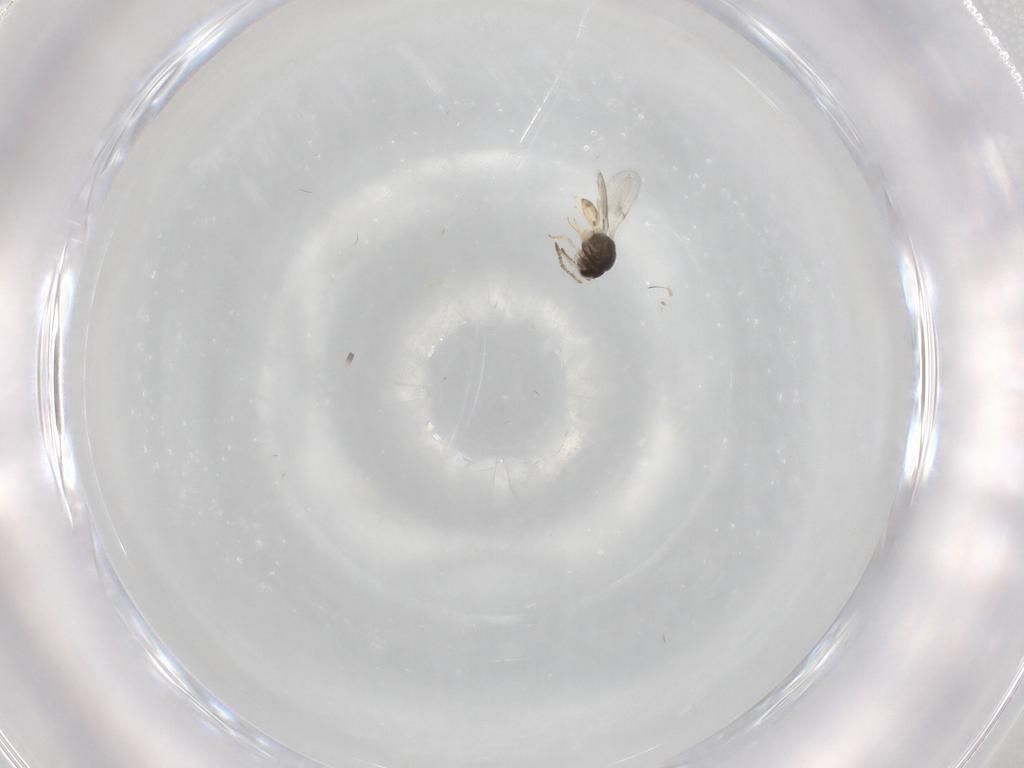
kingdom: Animalia
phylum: Arthropoda
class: Insecta
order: Hymenoptera
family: Scelionidae
